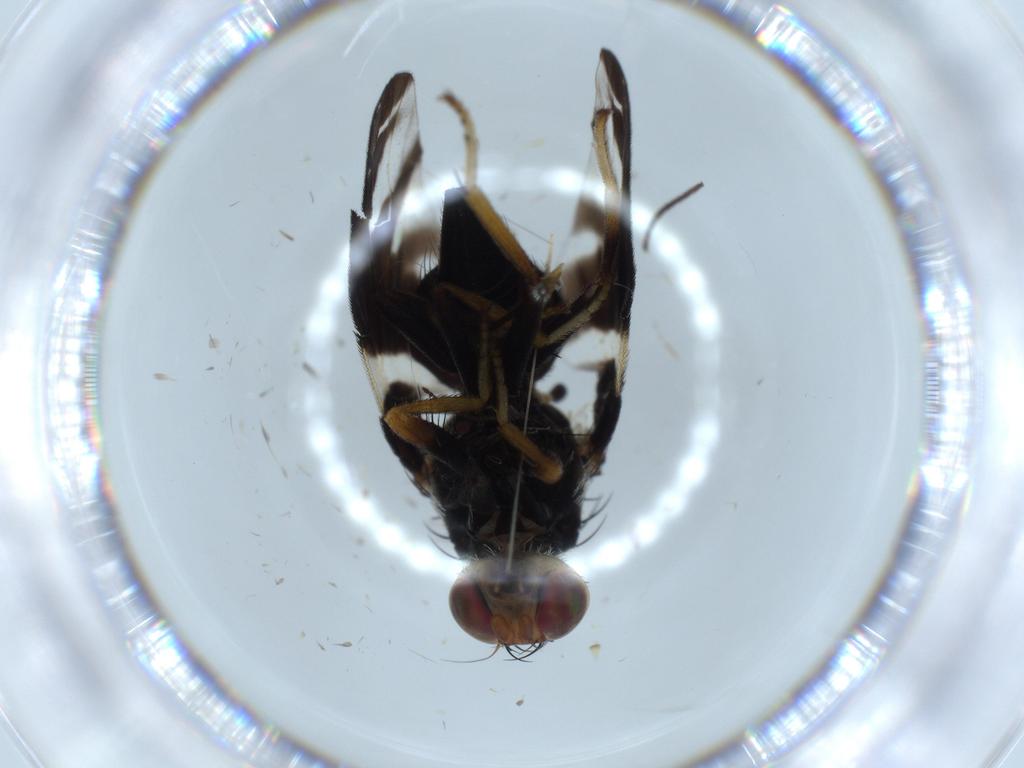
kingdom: Animalia
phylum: Arthropoda
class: Insecta
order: Diptera
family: Tephritidae
